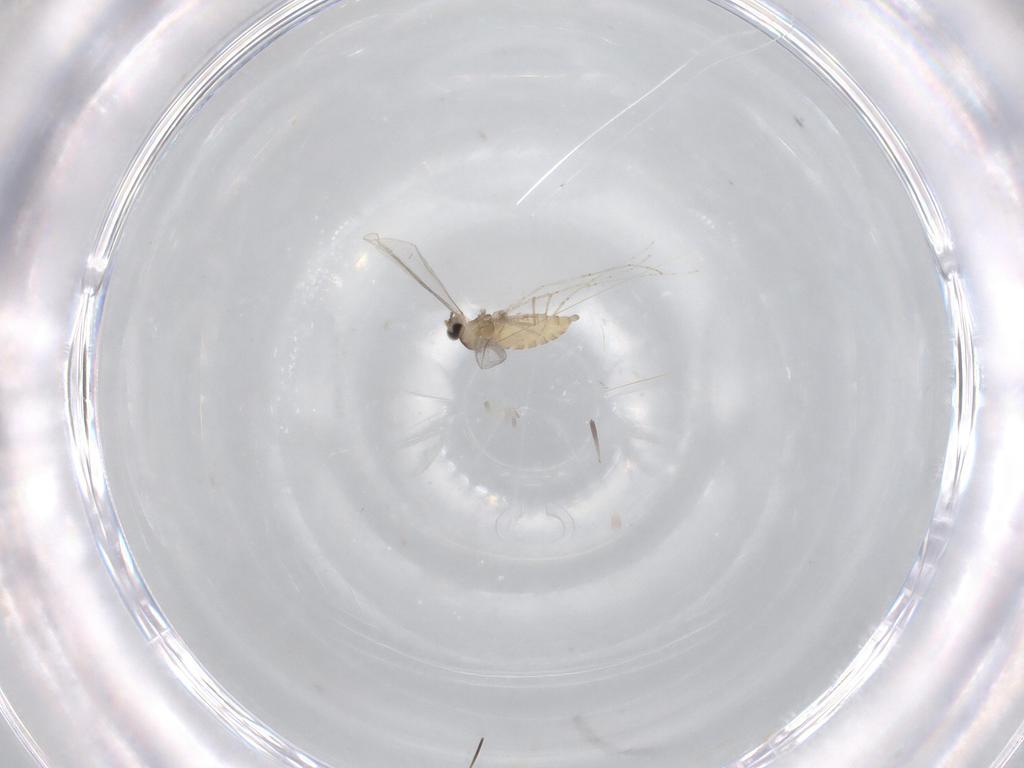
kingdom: Animalia
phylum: Arthropoda
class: Insecta
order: Diptera
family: Cecidomyiidae
